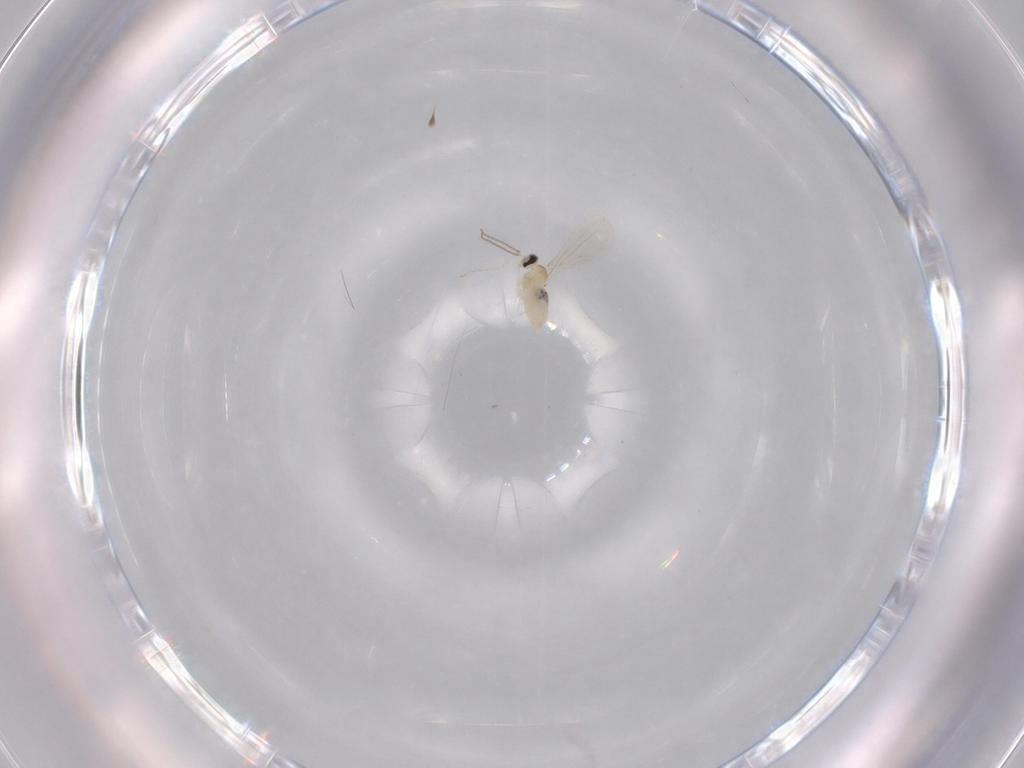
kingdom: Animalia
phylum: Arthropoda
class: Insecta
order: Diptera
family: Cecidomyiidae
